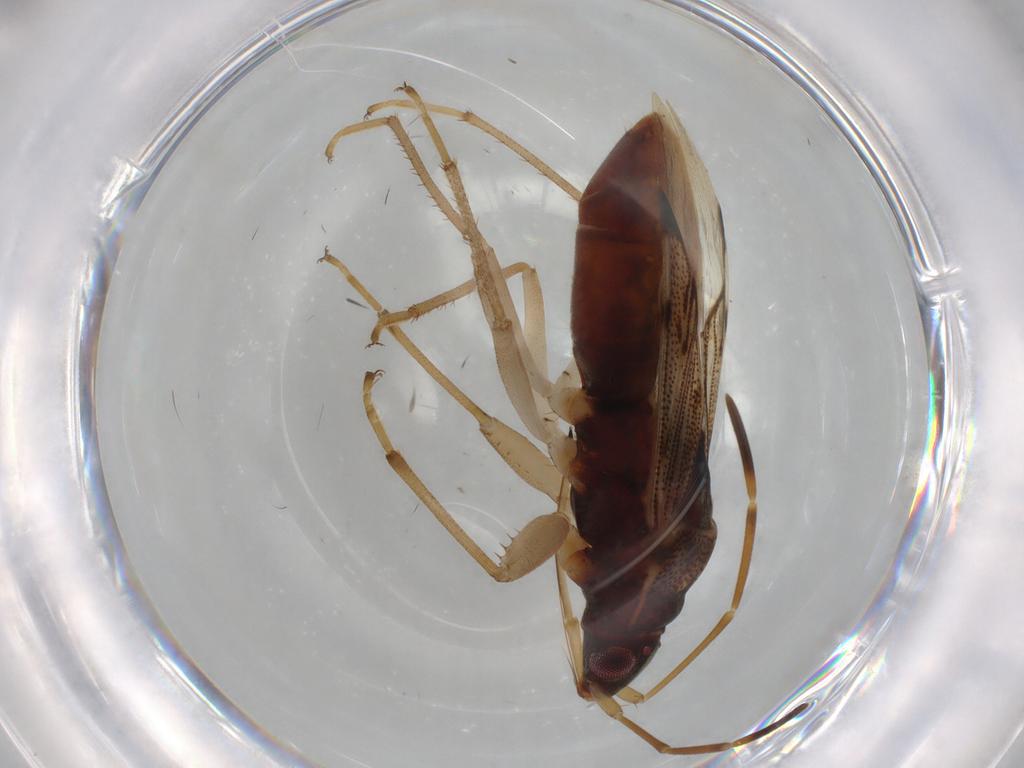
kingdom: Animalia
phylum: Arthropoda
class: Insecta
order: Hemiptera
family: Rhyparochromidae
